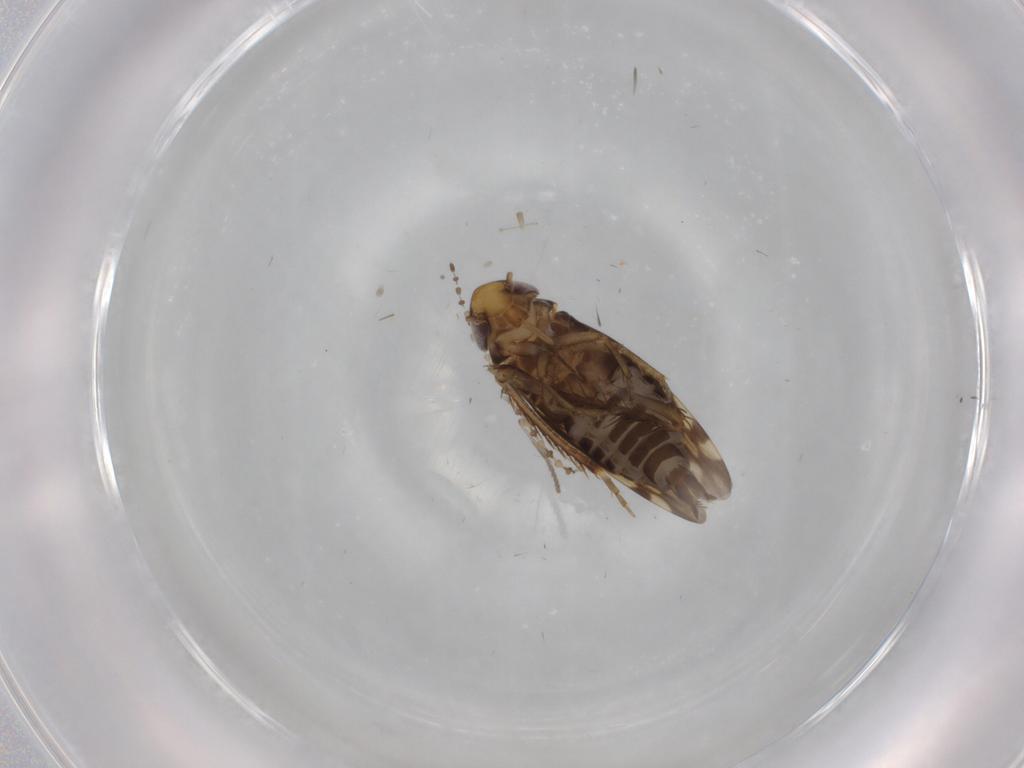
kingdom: Animalia
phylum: Arthropoda
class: Insecta
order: Hemiptera
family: Cicadellidae
